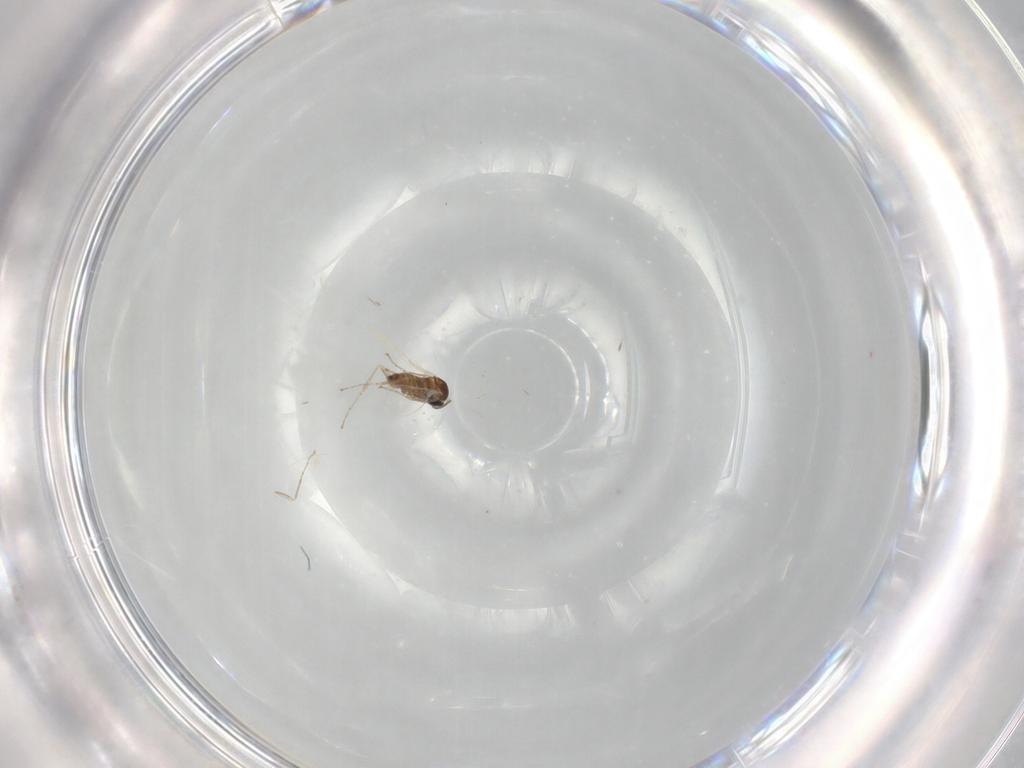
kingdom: Animalia
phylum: Arthropoda
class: Insecta
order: Diptera
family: Cecidomyiidae
